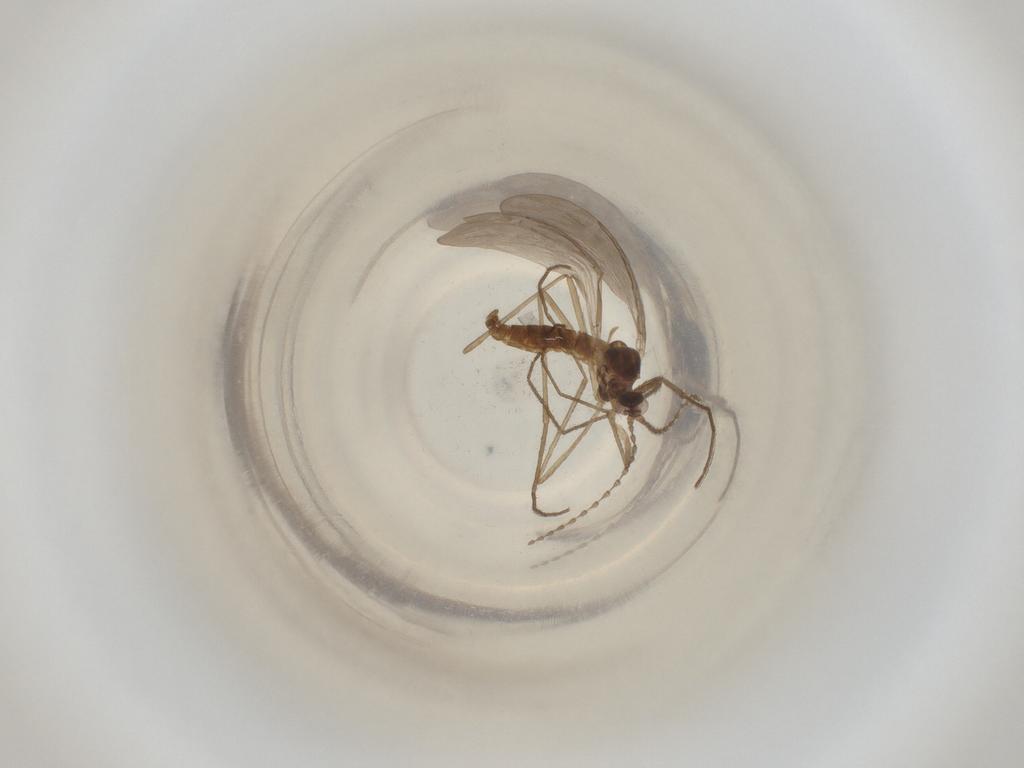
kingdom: Animalia
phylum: Arthropoda
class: Insecta
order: Diptera
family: Cecidomyiidae
